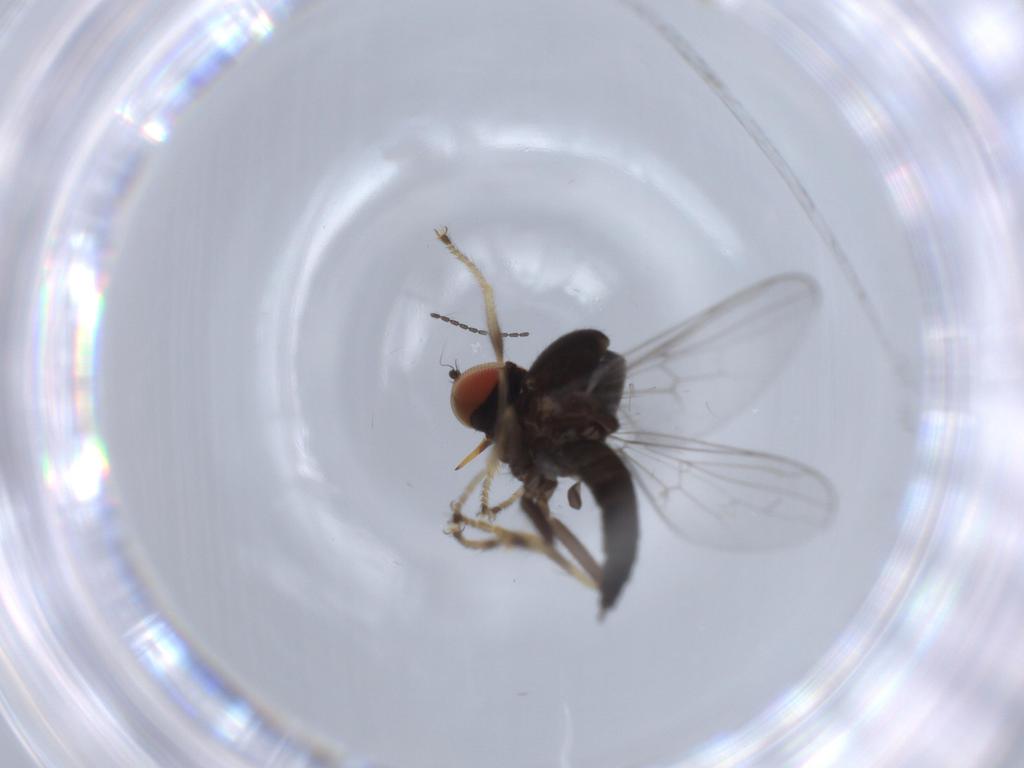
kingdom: Animalia
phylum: Arthropoda
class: Insecta
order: Diptera
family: Hybotidae
